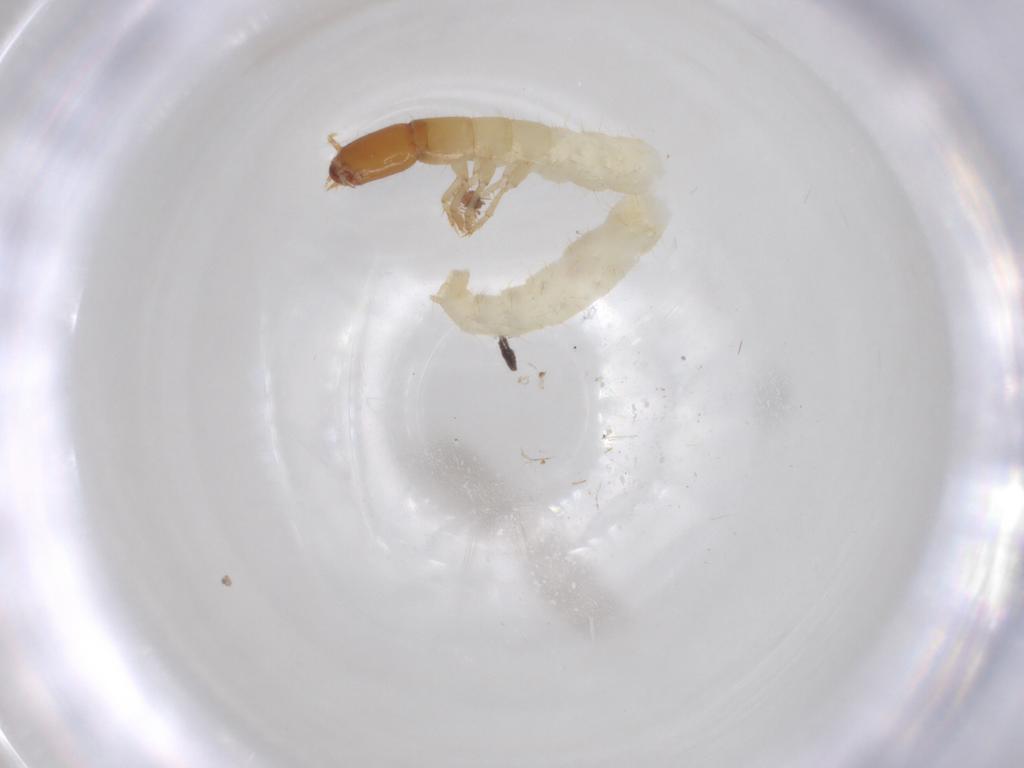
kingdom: Animalia
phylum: Arthropoda
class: Insecta
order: Coleoptera
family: Staphylinidae
